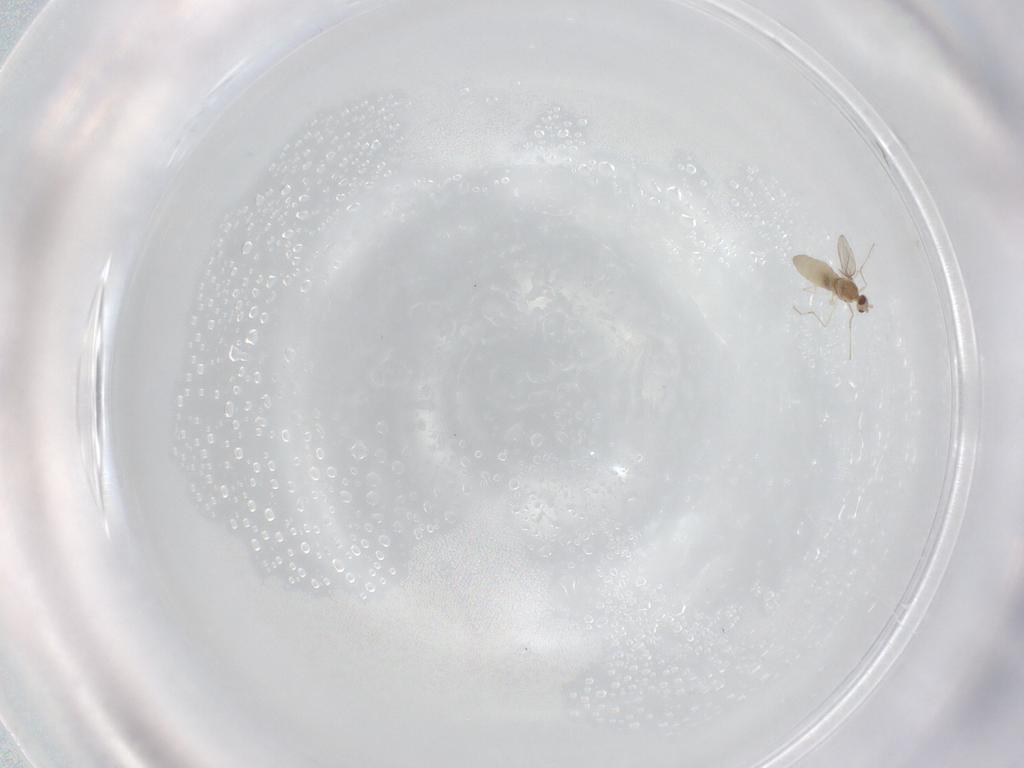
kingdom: Animalia
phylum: Arthropoda
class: Insecta
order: Diptera
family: Cecidomyiidae
